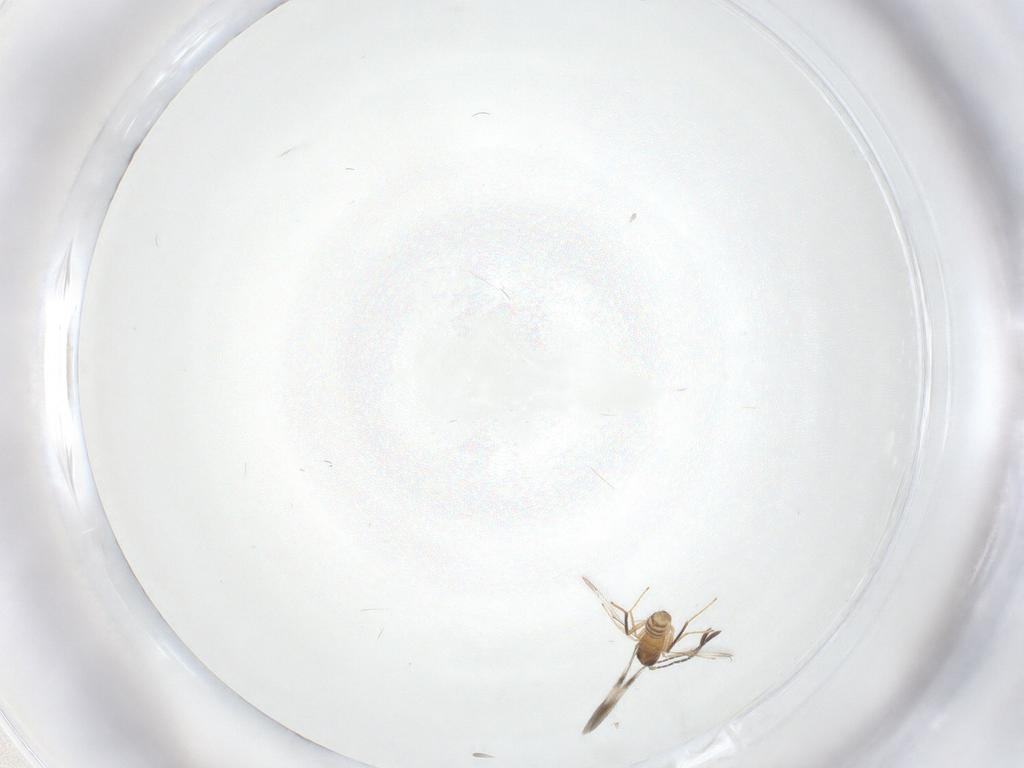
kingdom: Animalia
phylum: Arthropoda
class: Insecta
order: Hymenoptera
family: Mymaridae
